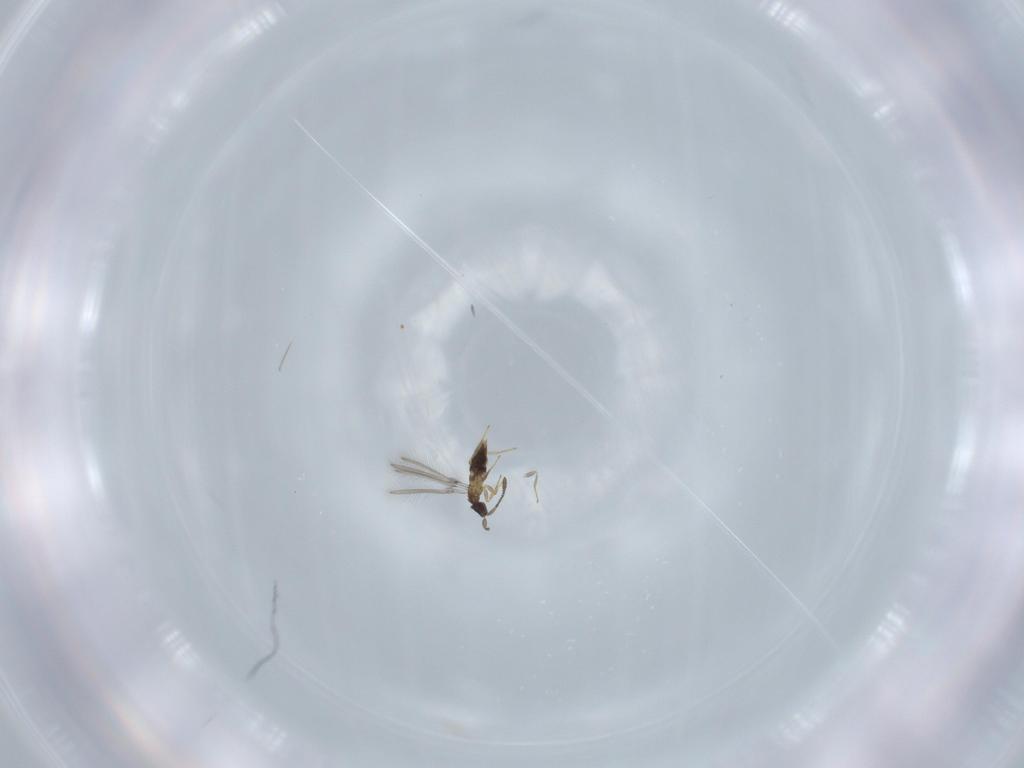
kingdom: Animalia
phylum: Arthropoda
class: Insecta
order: Hymenoptera
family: Mymaridae
